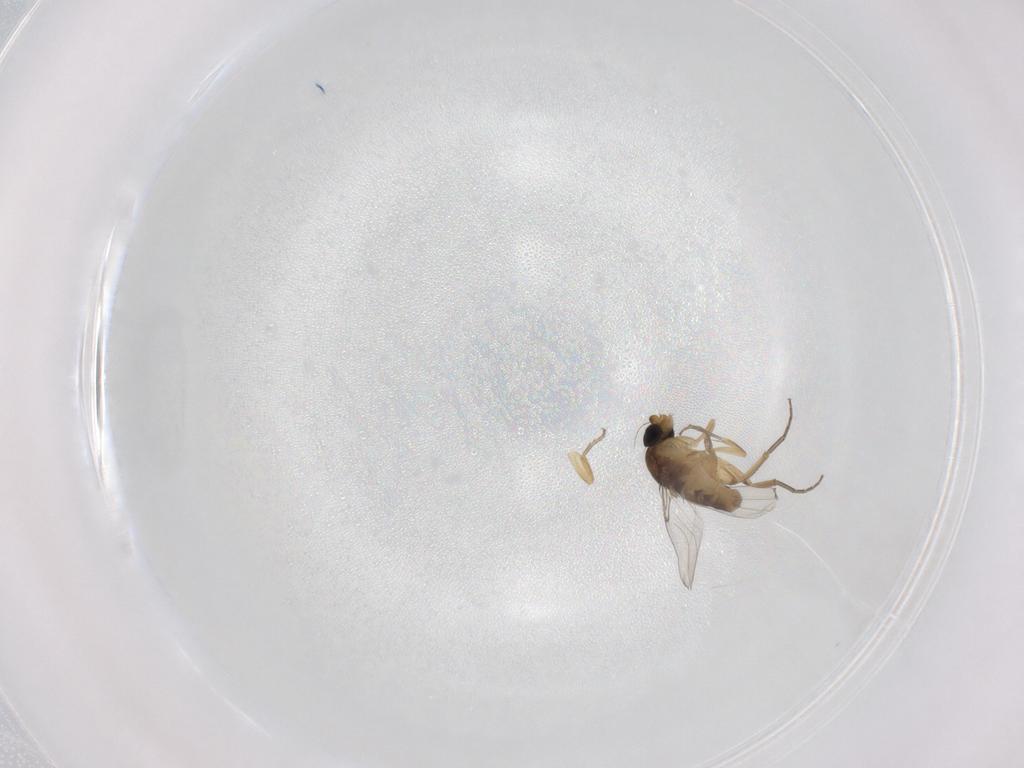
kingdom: Animalia
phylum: Arthropoda
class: Insecta
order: Diptera
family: Phoridae
